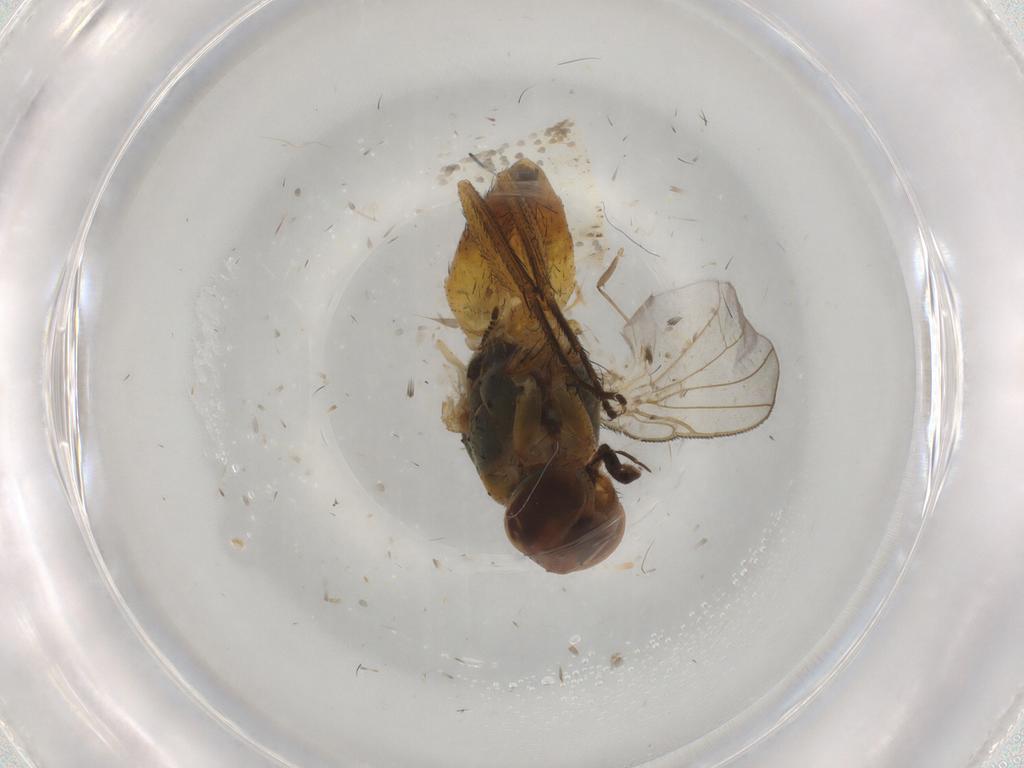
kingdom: Animalia
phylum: Arthropoda
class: Insecta
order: Diptera
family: Muscidae
